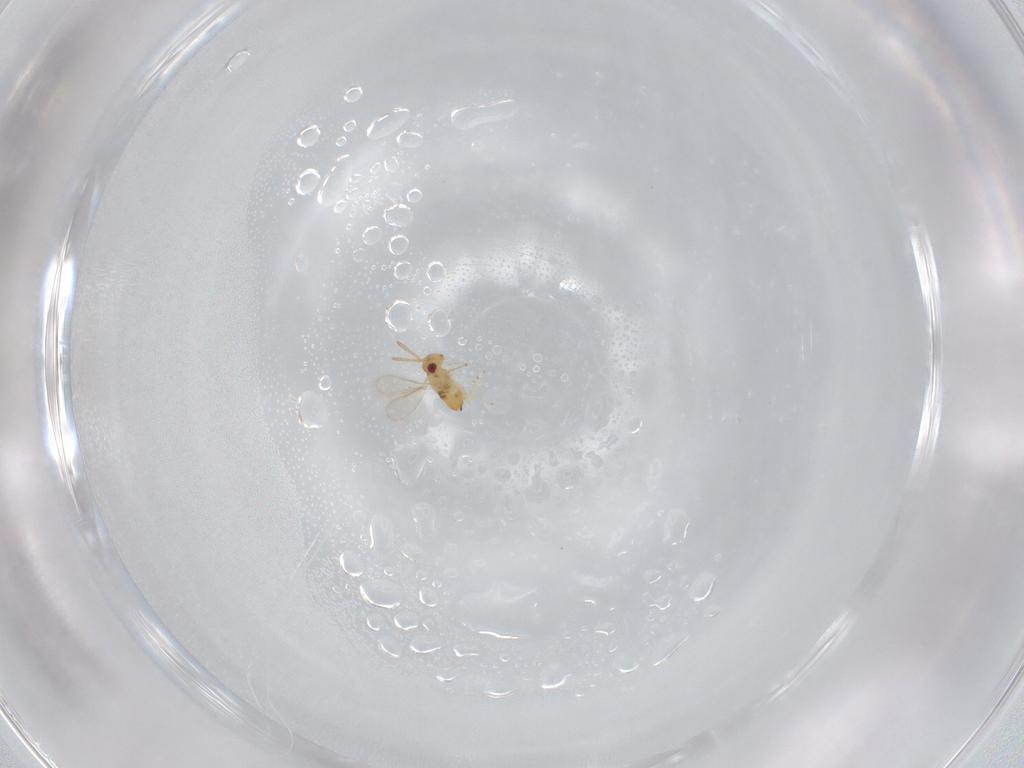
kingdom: Animalia
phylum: Arthropoda
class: Insecta
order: Hymenoptera
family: Aphelinidae
